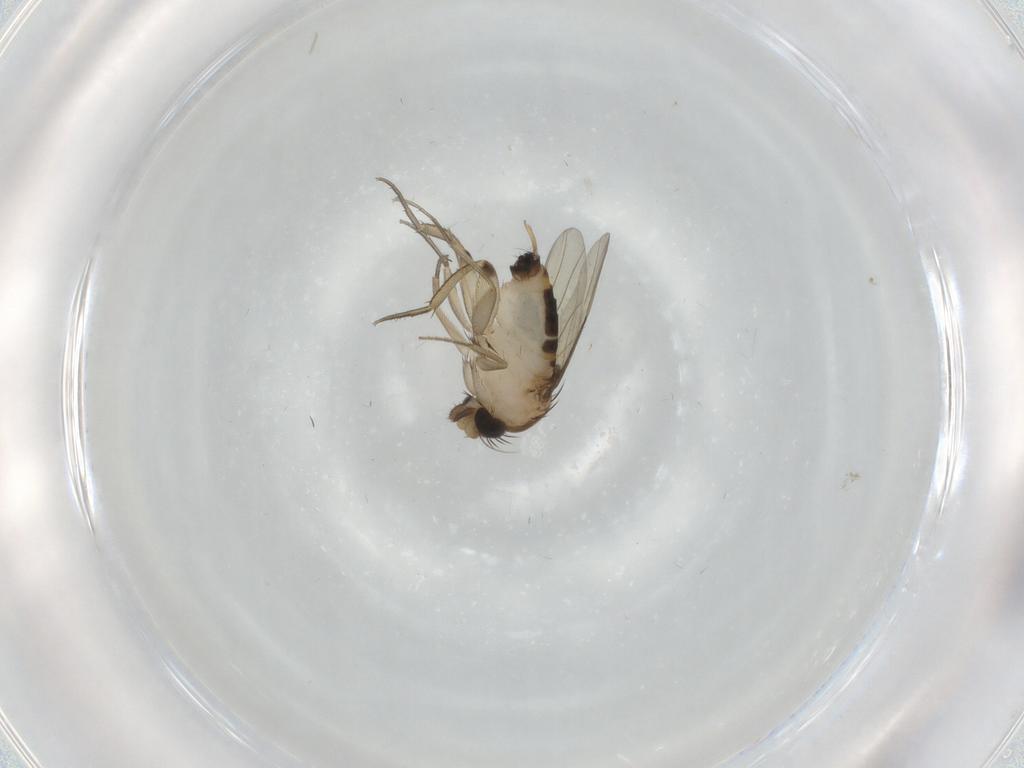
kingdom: Animalia
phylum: Arthropoda
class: Insecta
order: Diptera
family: Phoridae
